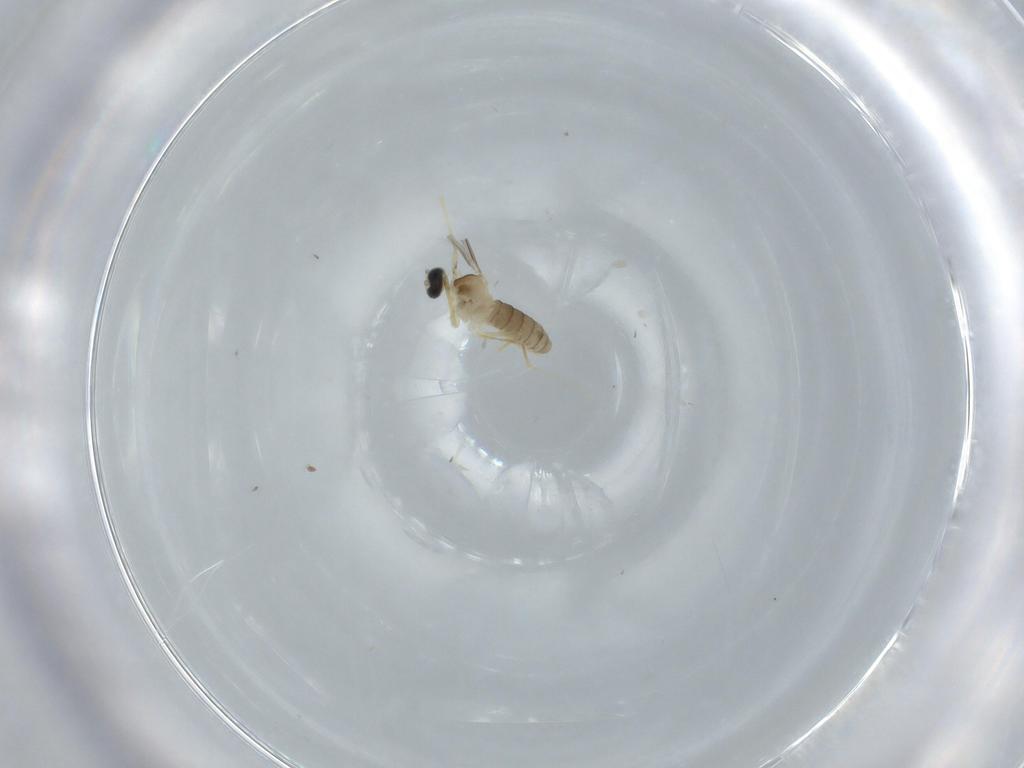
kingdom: Animalia
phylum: Arthropoda
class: Insecta
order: Diptera
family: Cecidomyiidae
